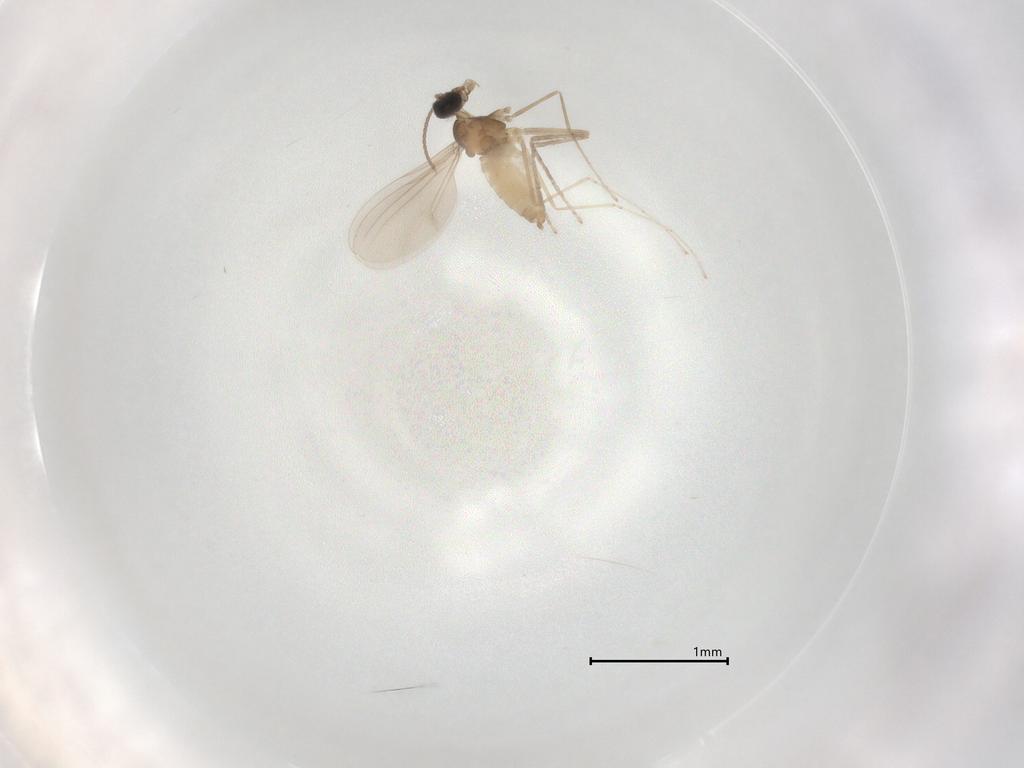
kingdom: Animalia
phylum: Arthropoda
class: Insecta
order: Diptera
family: Cecidomyiidae
